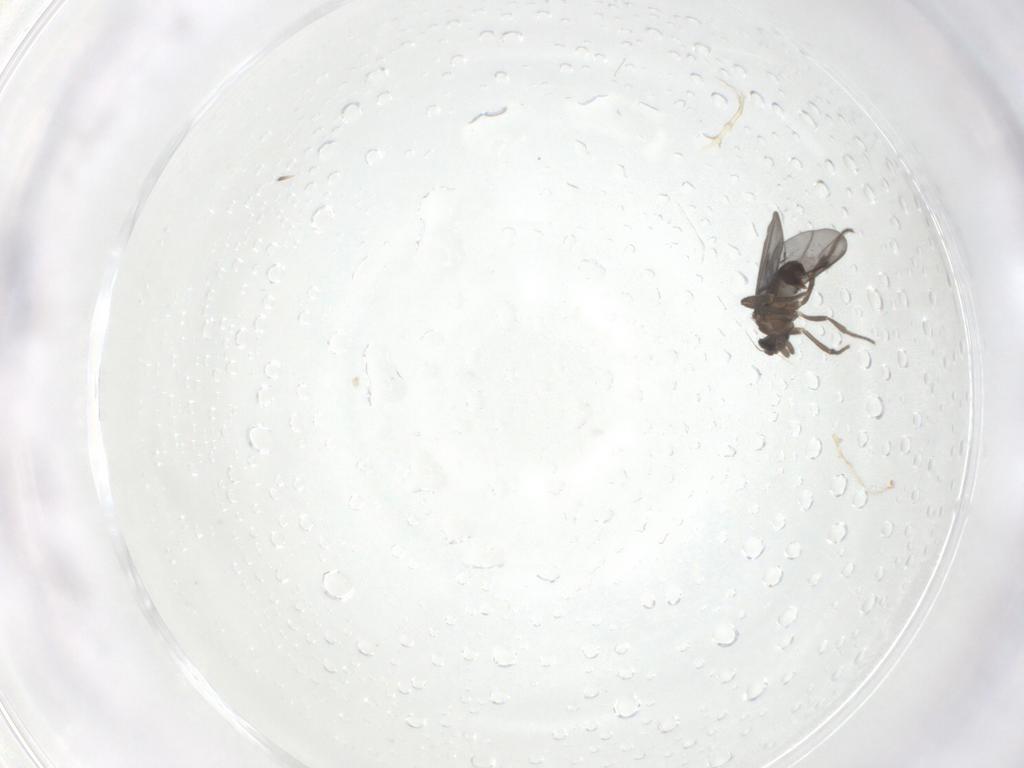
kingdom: Animalia
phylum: Arthropoda
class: Insecta
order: Diptera
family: Phoridae
